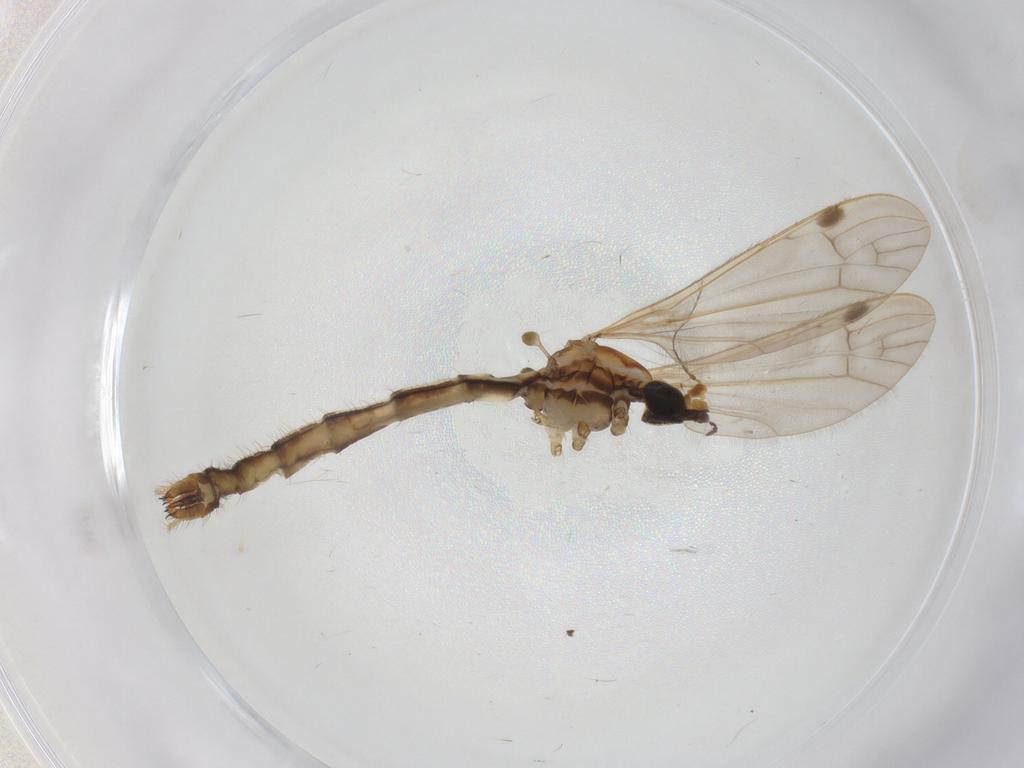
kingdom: Animalia
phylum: Arthropoda
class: Insecta
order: Diptera
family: Limoniidae
